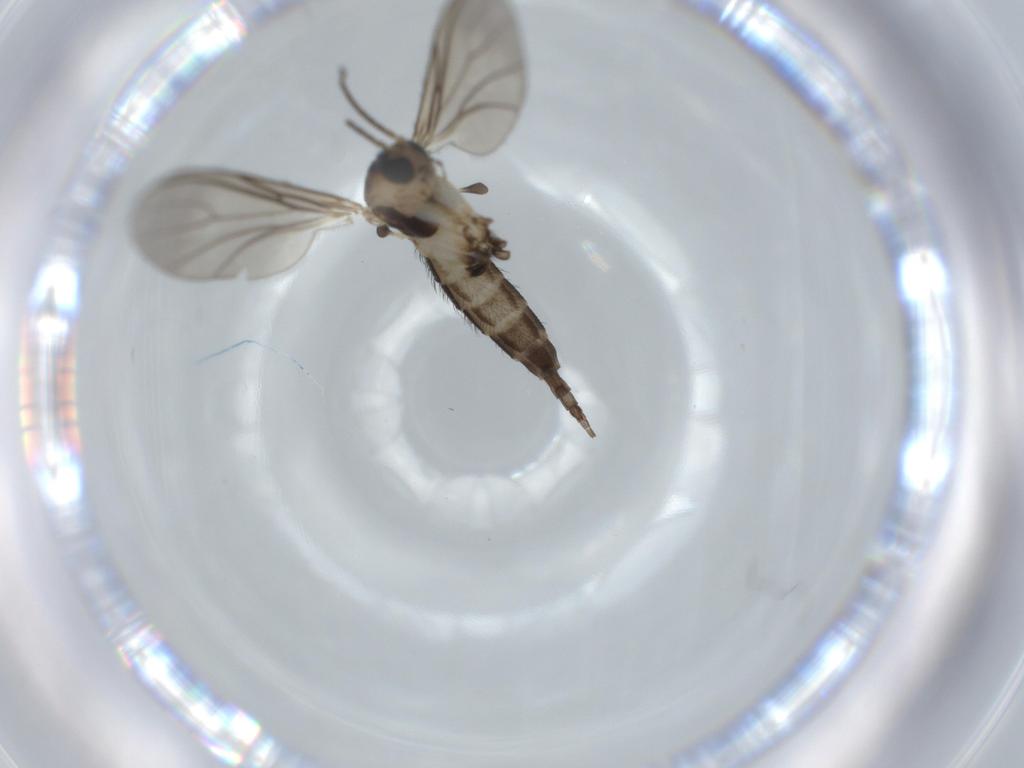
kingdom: Animalia
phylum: Arthropoda
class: Insecta
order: Diptera
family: Sciaridae
